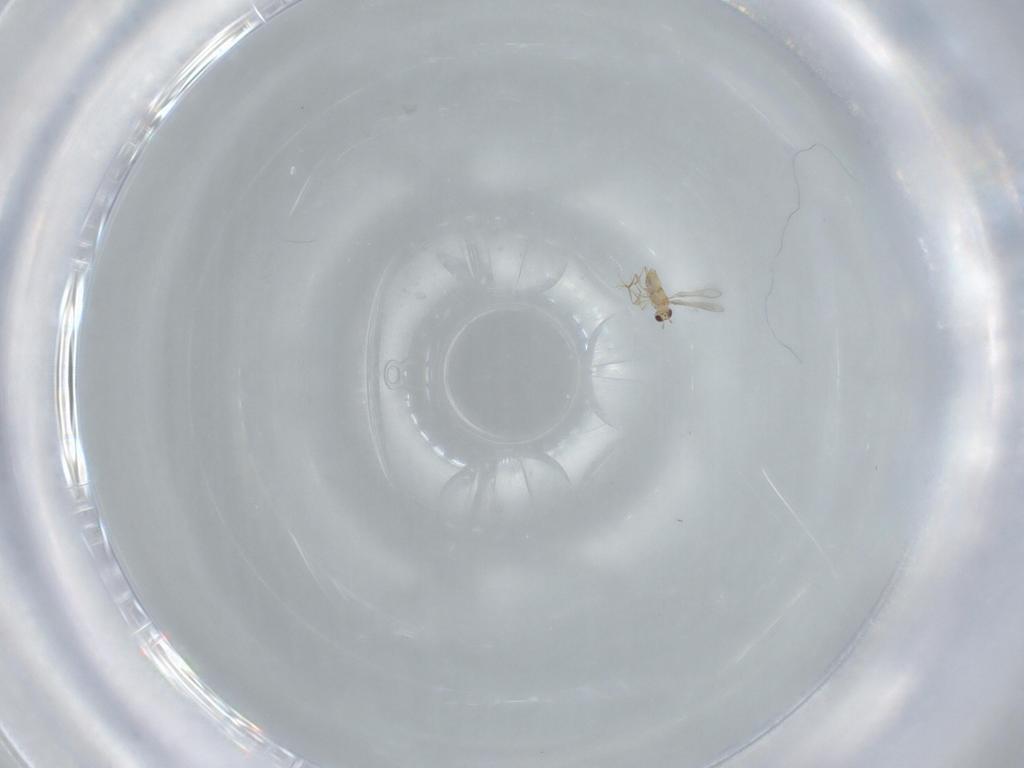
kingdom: Animalia
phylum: Arthropoda
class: Insecta
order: Hymenoptera
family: Mymaridae
